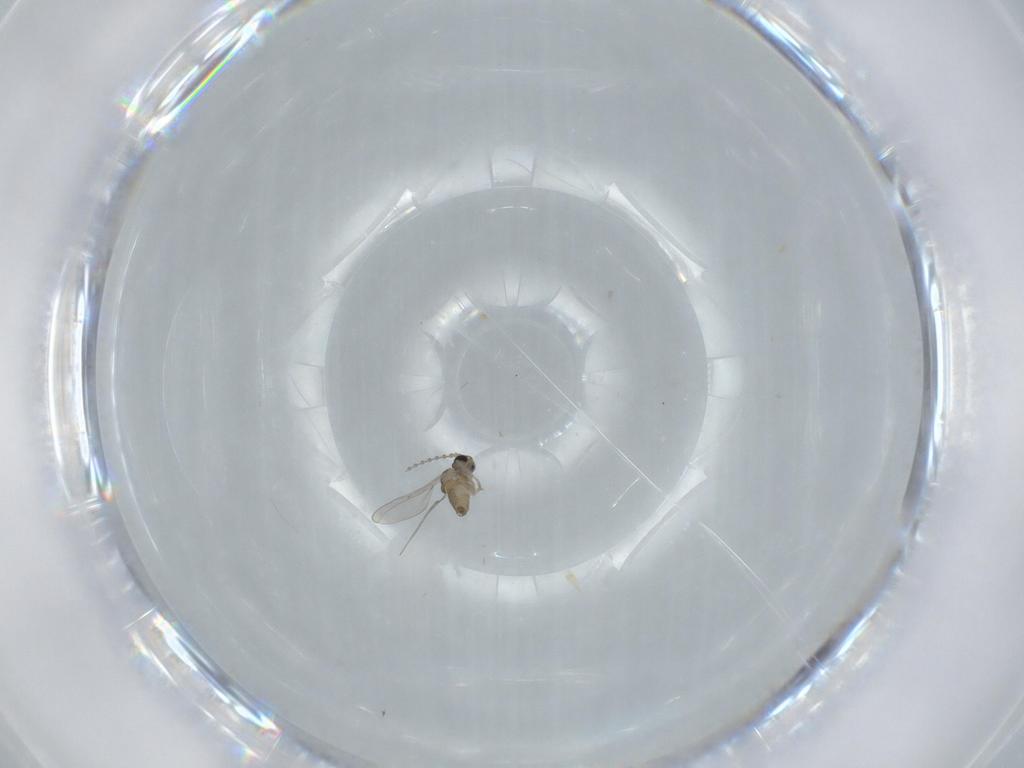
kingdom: Animalia
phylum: Arthropoda
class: Insecta
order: Diptera
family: Cecidomyiidae
